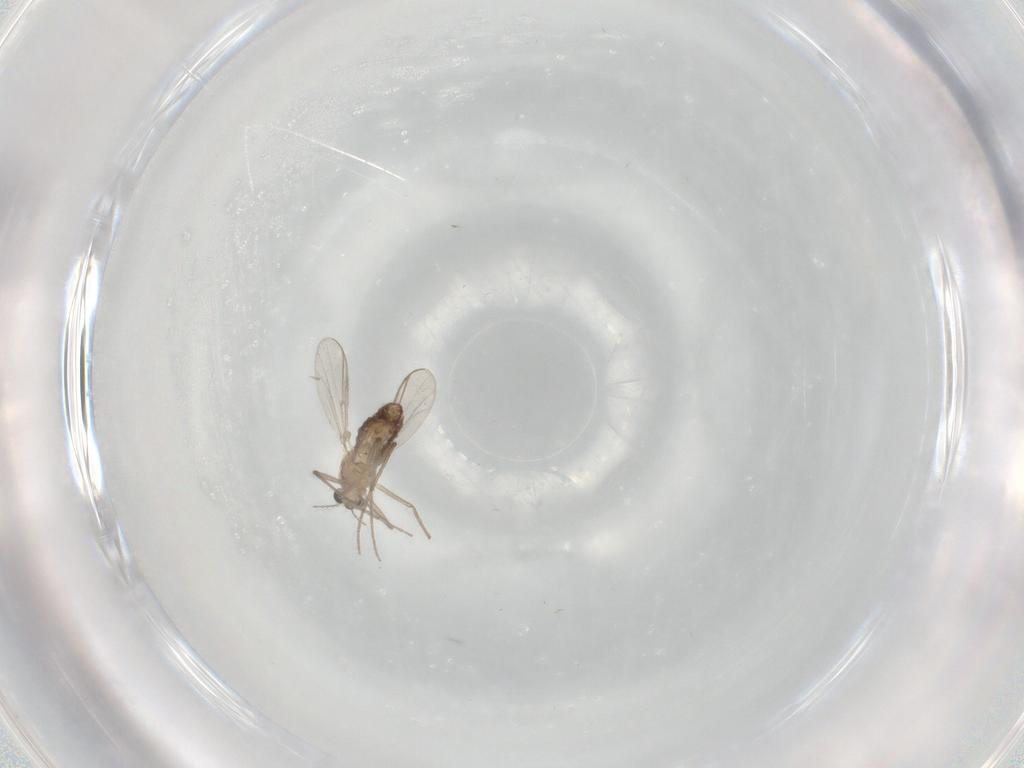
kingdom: Animalia
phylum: Arthropoda
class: Insecta
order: Diptera
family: Chironomidae
